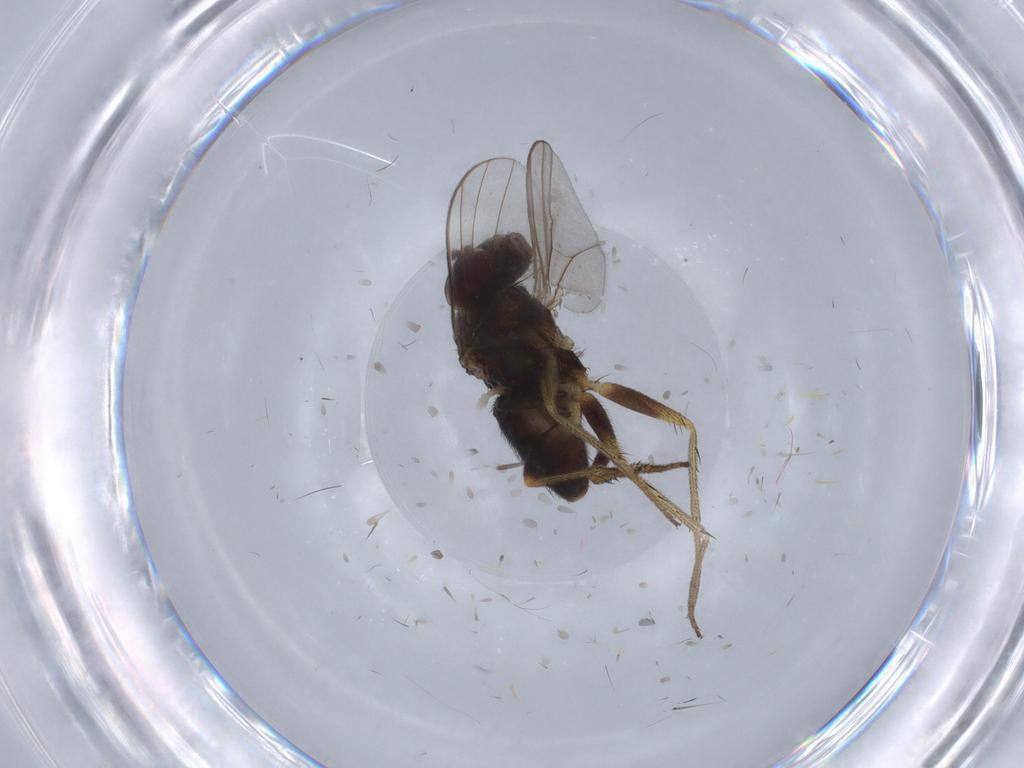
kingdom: Animalia
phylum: Arthropoda
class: Insecta
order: Diptera
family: Dolichopodidae
